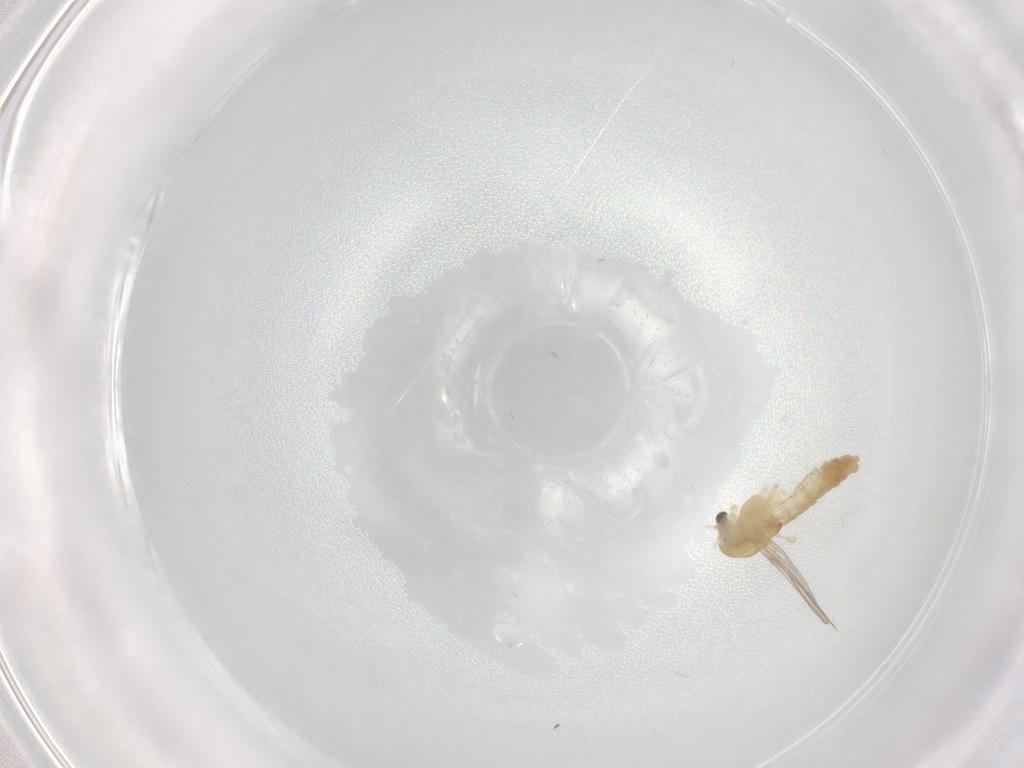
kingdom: Animalia
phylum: Arthropoda
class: Insecta
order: Diptera
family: Chironomidae
